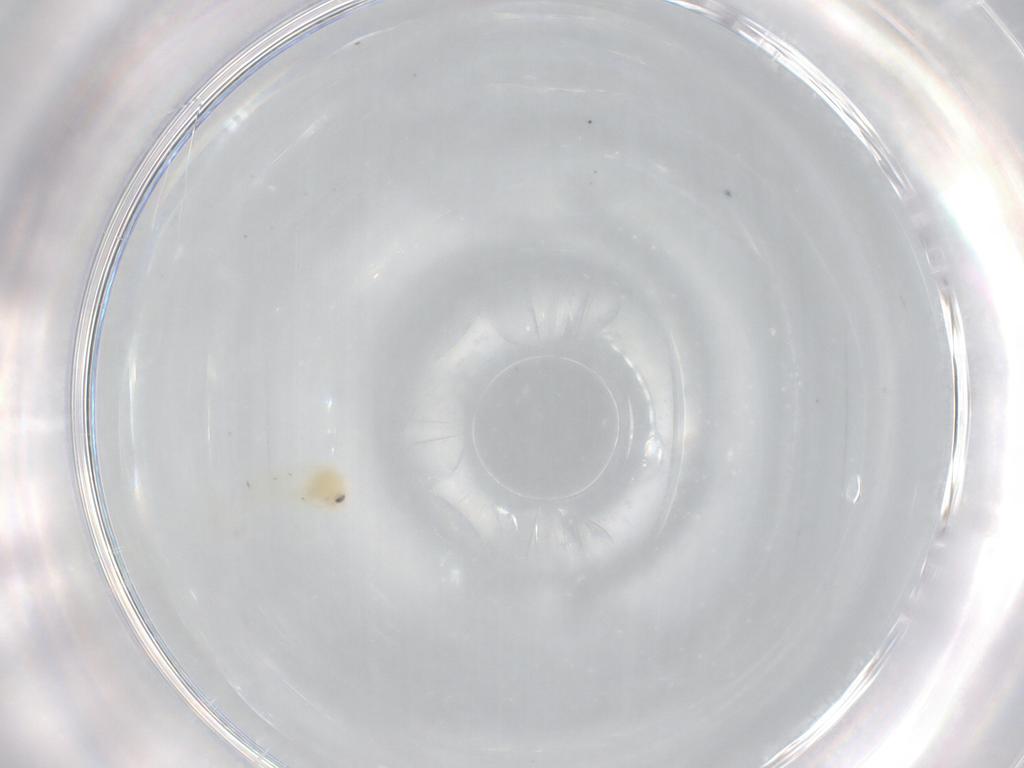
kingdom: Animalia
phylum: Arthropoda
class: Insecta
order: Hemiptera
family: Aleyrodidae
